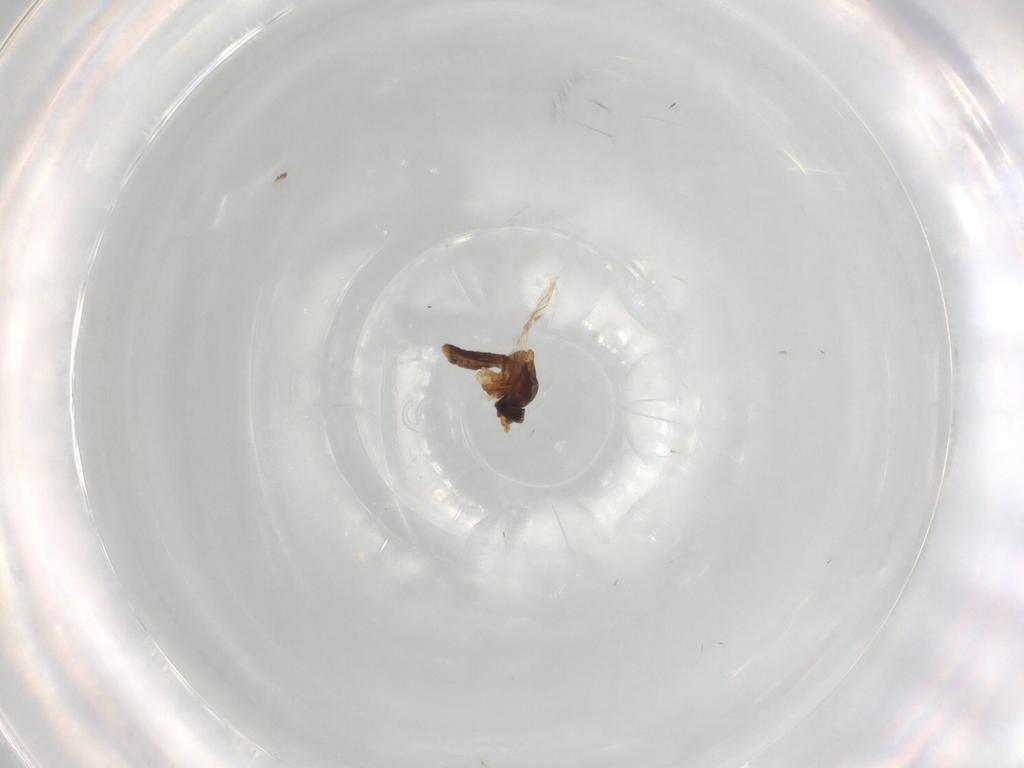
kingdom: Animalia
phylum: Arthropoda
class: Insecta
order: Diptera
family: Ceratopogonidae
